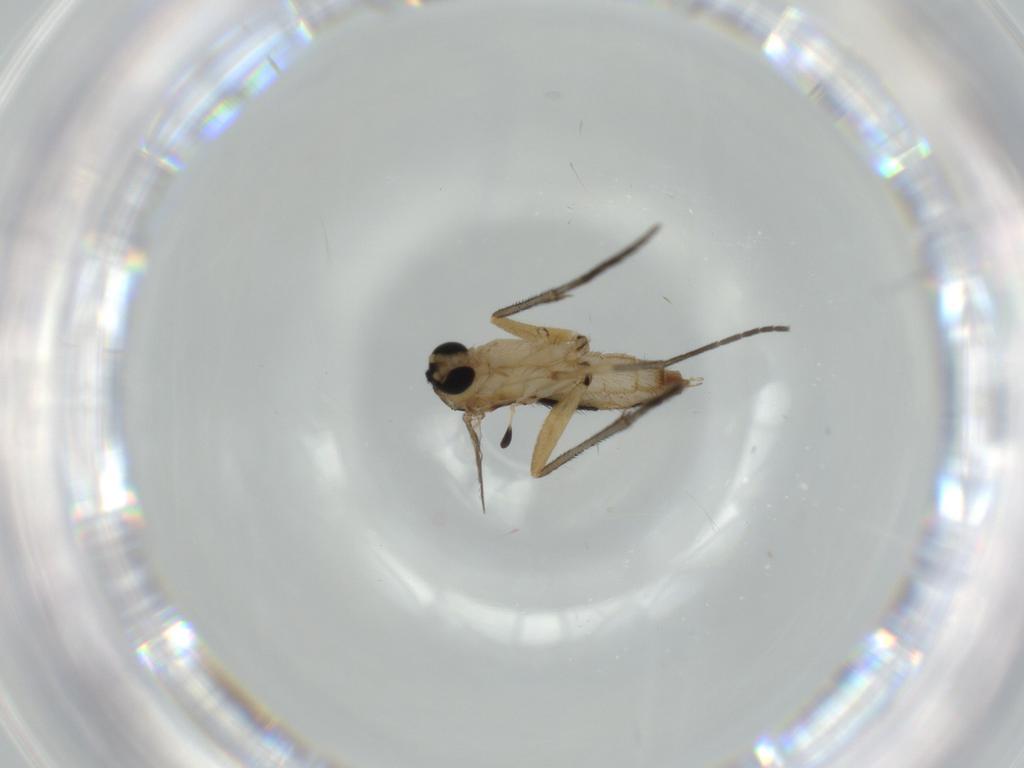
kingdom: Animalia
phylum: Arthropoda
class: Insecta
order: Diptera
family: Sciaridae
